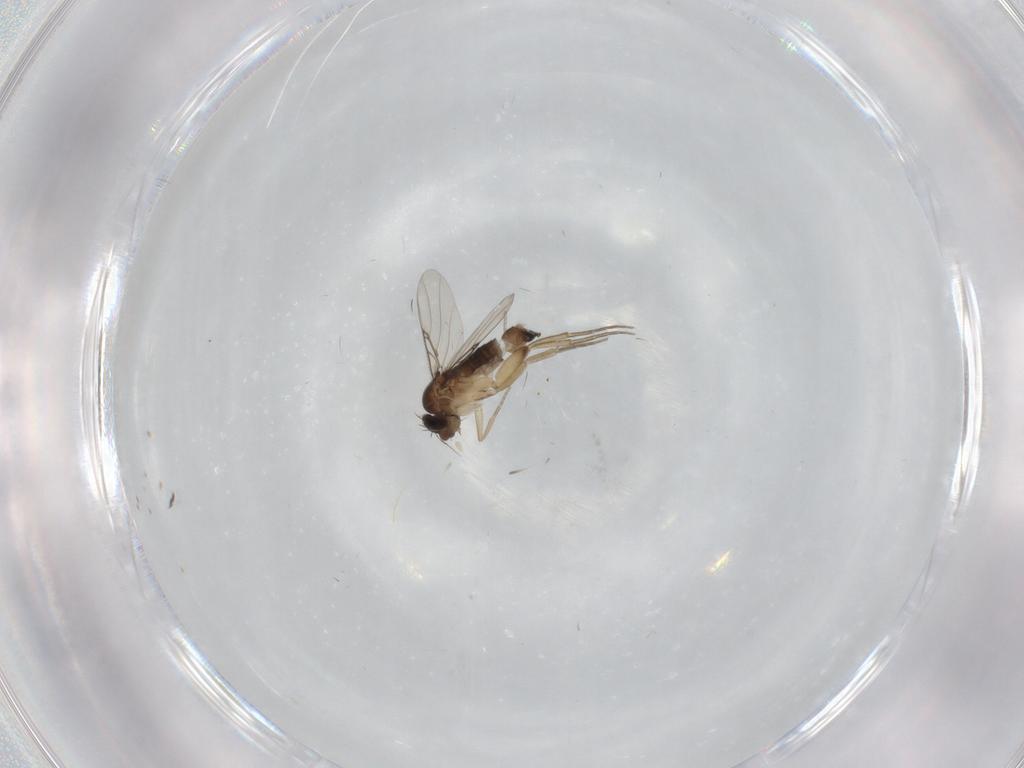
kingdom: Animalia
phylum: Arthropoda
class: Insecta
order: Diptera
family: Phoridae
